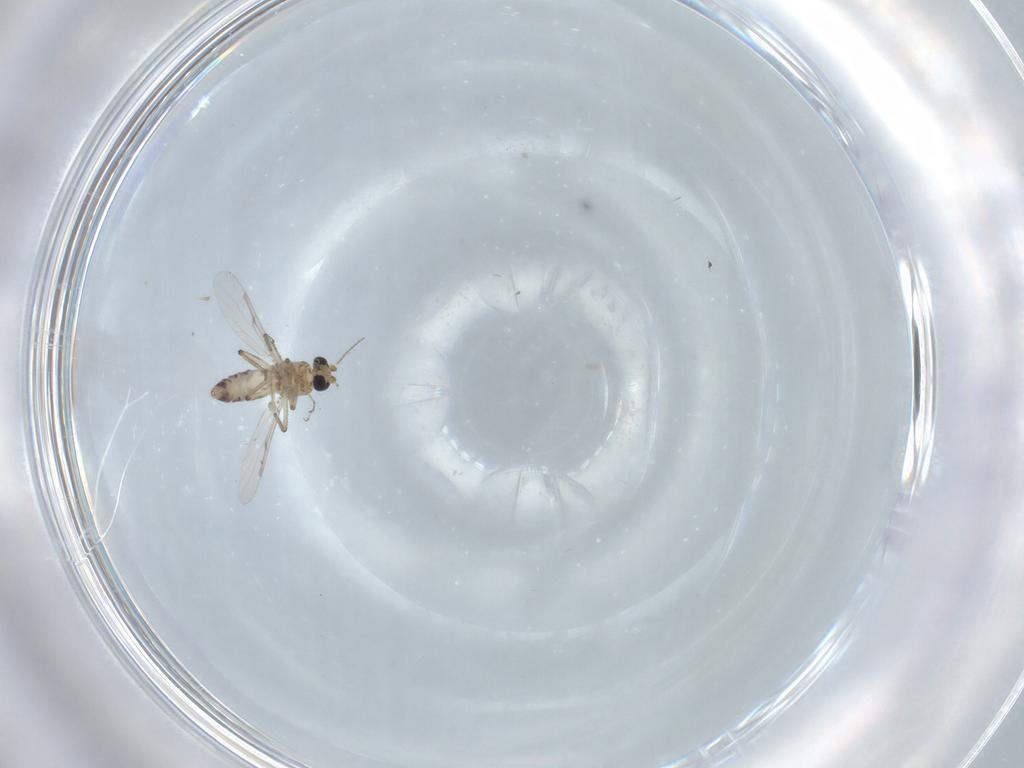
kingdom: Animalia
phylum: Arthropoda
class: Insecta
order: Diptera
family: Ceratopogonidae
